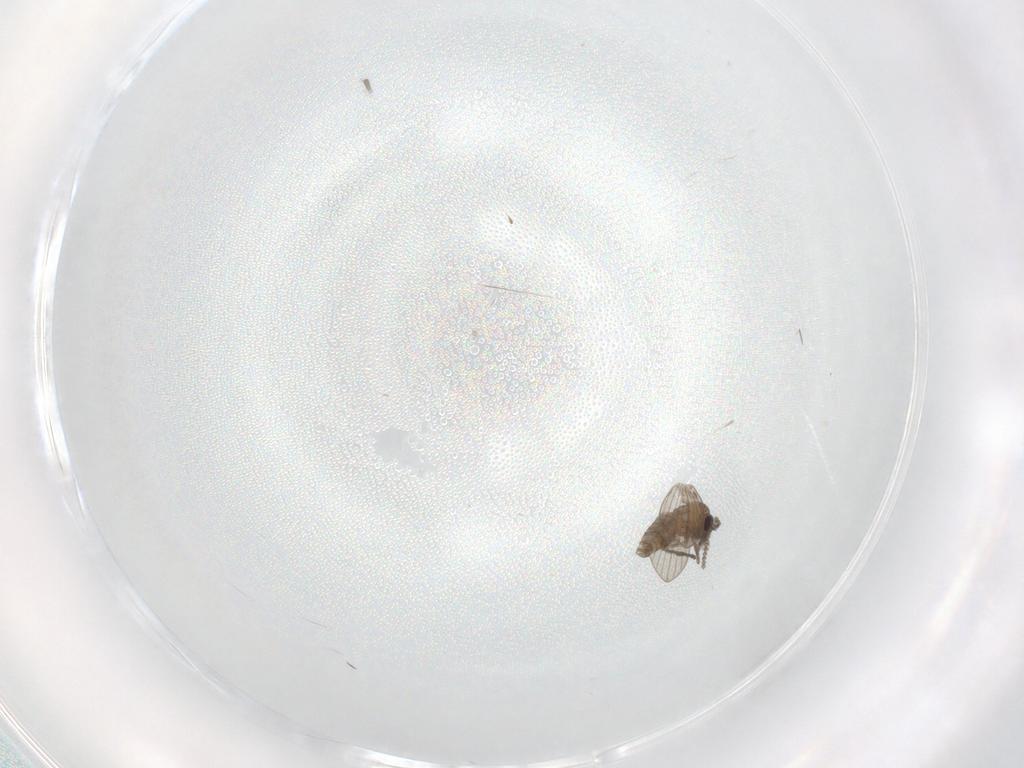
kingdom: Animalia
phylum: Arthropoda
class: Insecta
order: Diptera
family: Psychodidae
